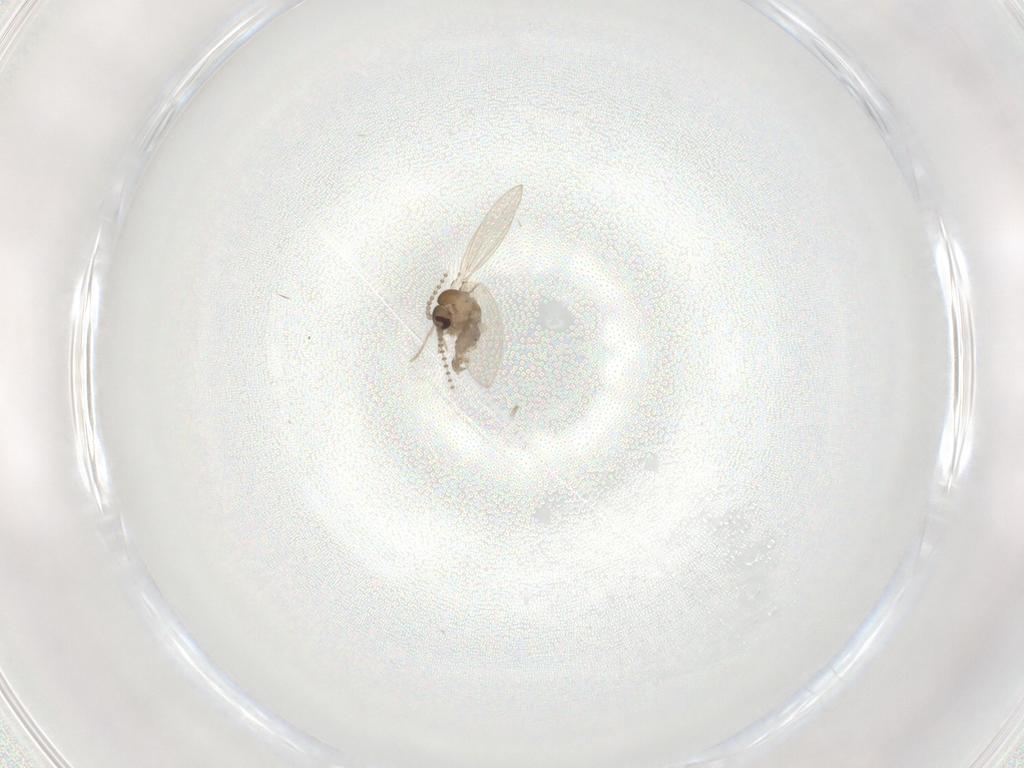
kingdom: Animalia
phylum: Arthropoda
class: Insecta
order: Diptera
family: Psychodidae
